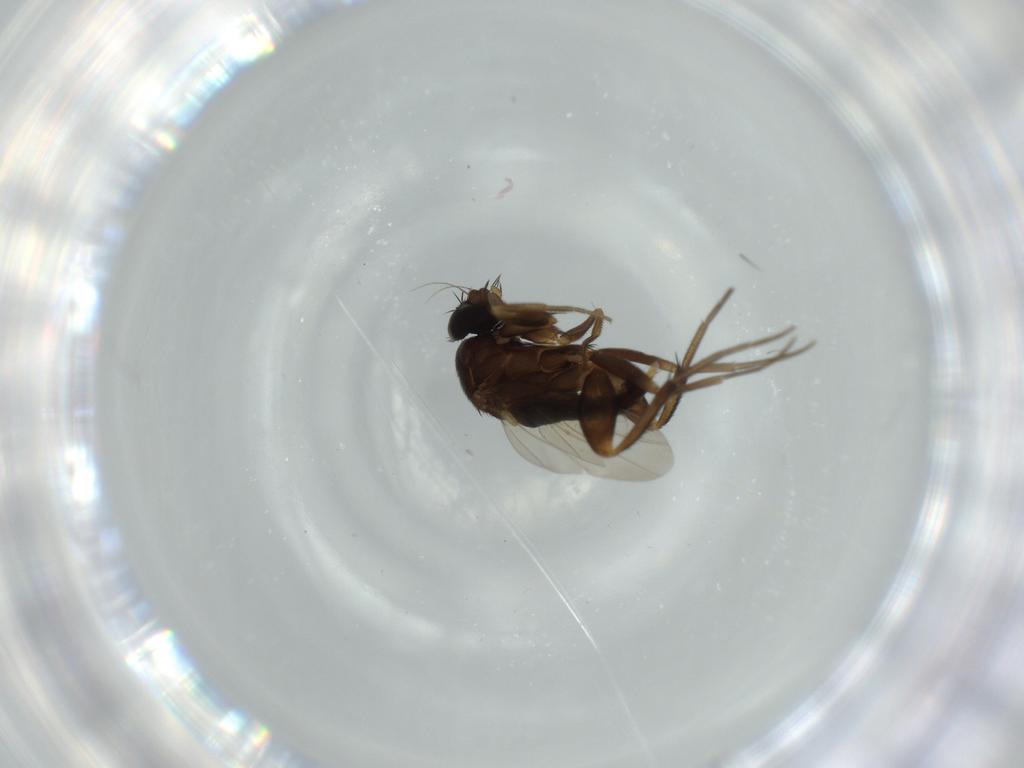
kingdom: Animalia
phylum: Arthropoda
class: Insecta
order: Diptera
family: Phoridae
